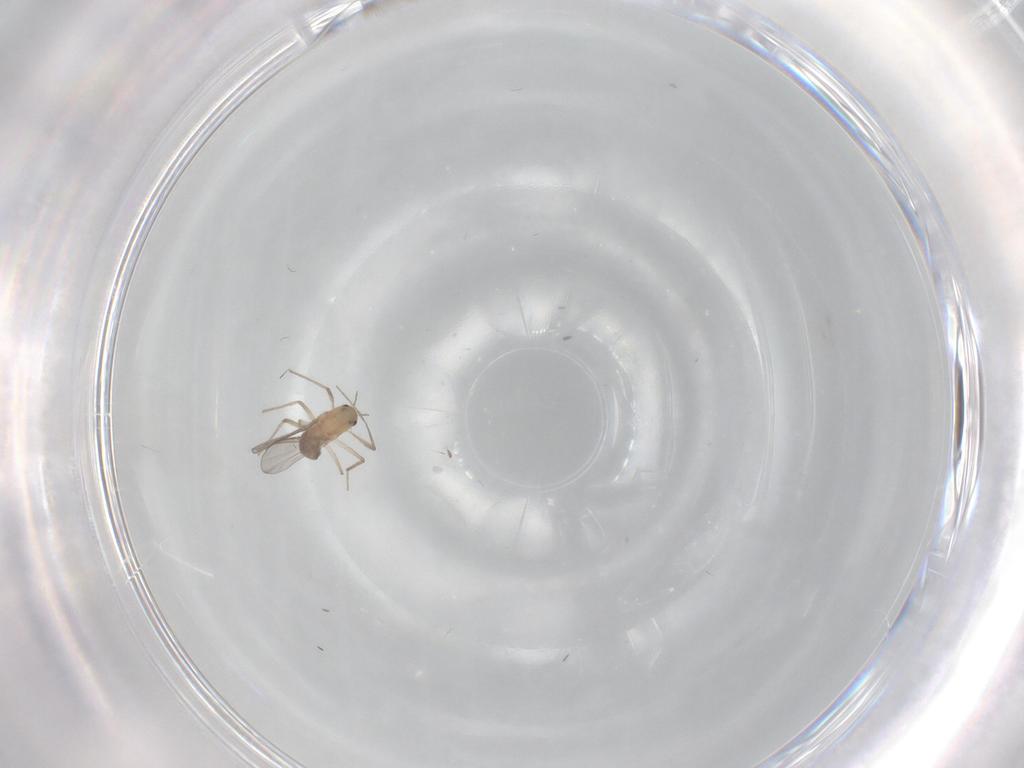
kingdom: Animalia
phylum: Arthropoda
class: Insecta
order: Diptera
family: Chironomidae
